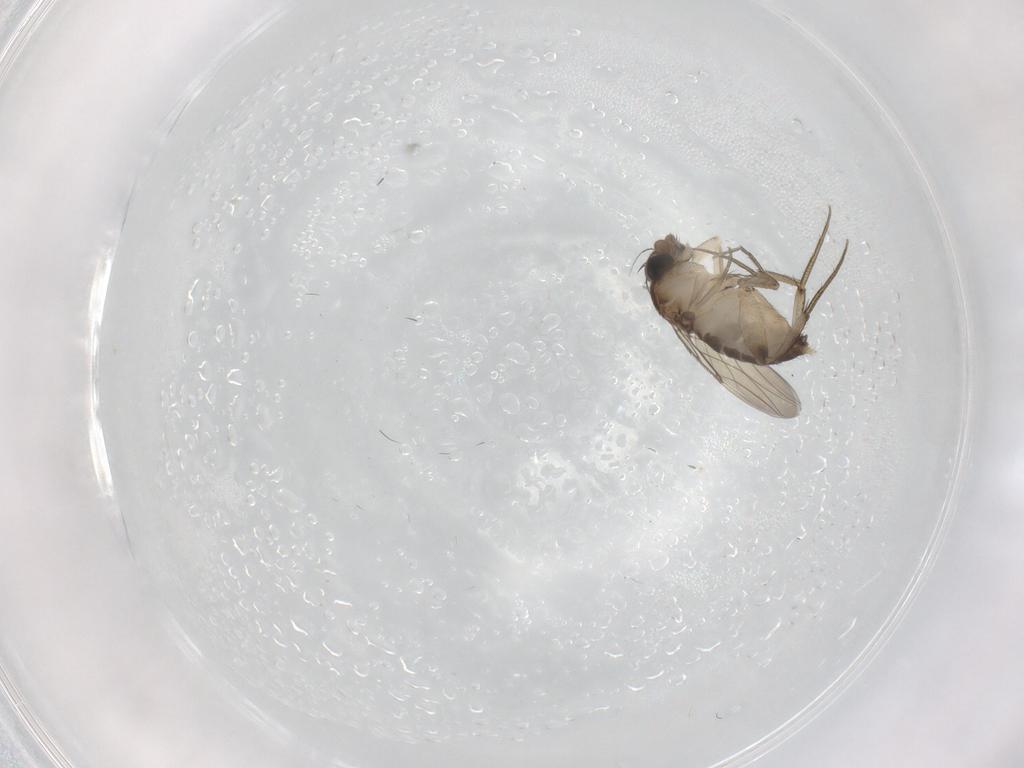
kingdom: Animalia
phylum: Arthropoda
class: Insecta
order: Diptera
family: Phoridae
